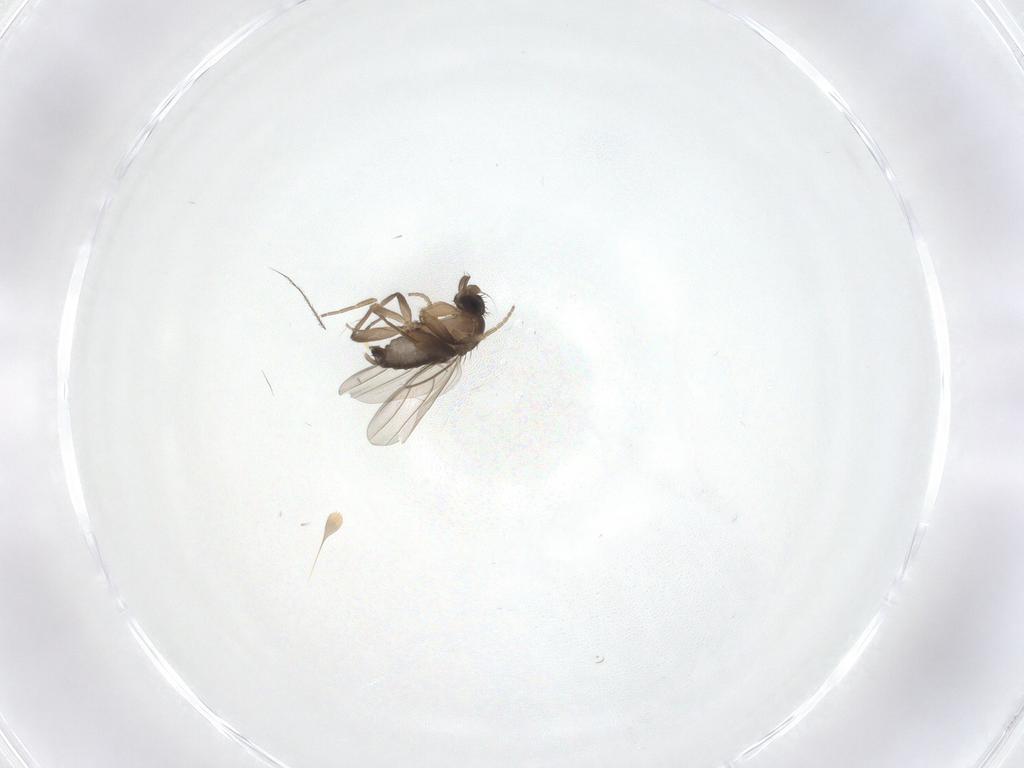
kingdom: Animalia
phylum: Arthropoda
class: Insecta
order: Diptera
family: Phoridae
